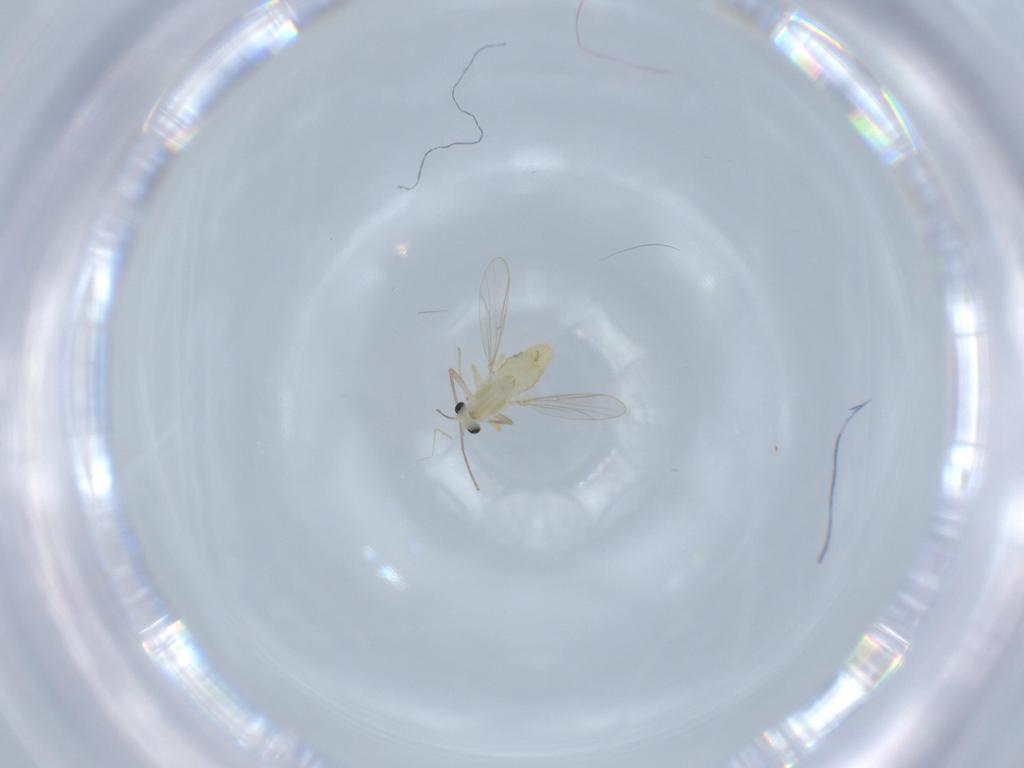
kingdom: Animalia
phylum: Arthropoda
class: Insecta
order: Diptera
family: Chironomidae
